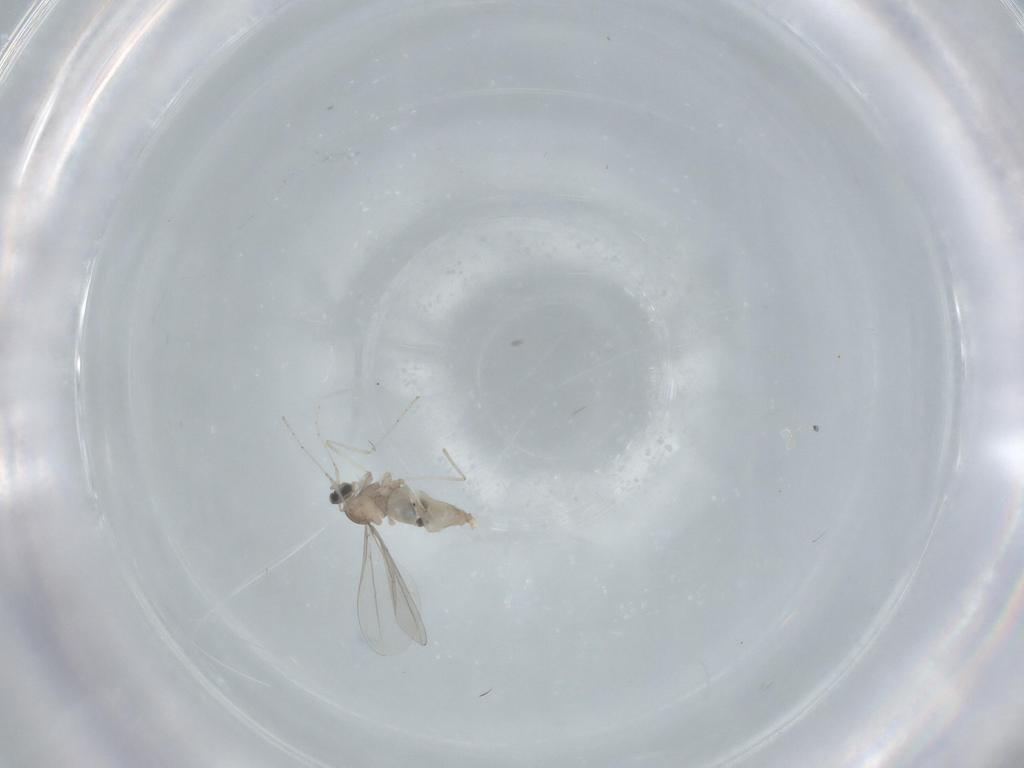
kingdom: Animalia
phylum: Arthropoda
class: Insecta
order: Diptera
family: Cecidomyiidae
